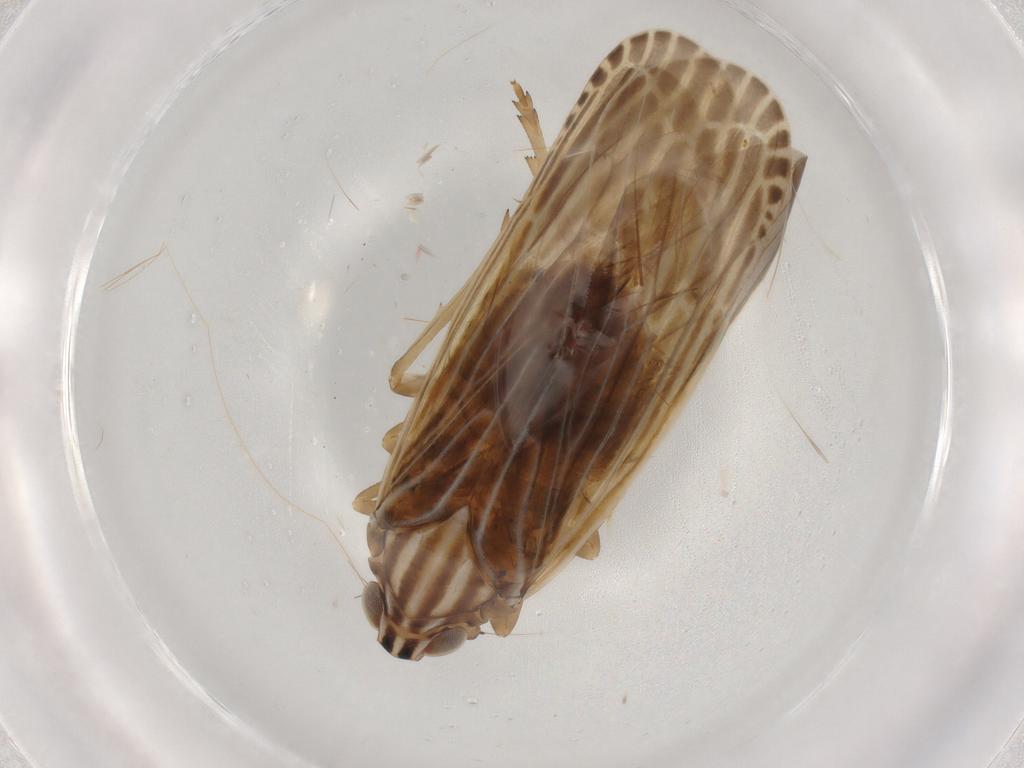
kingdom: Animalia
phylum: Arthropoda
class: Insecta
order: Hemiptera
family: Achilidae
